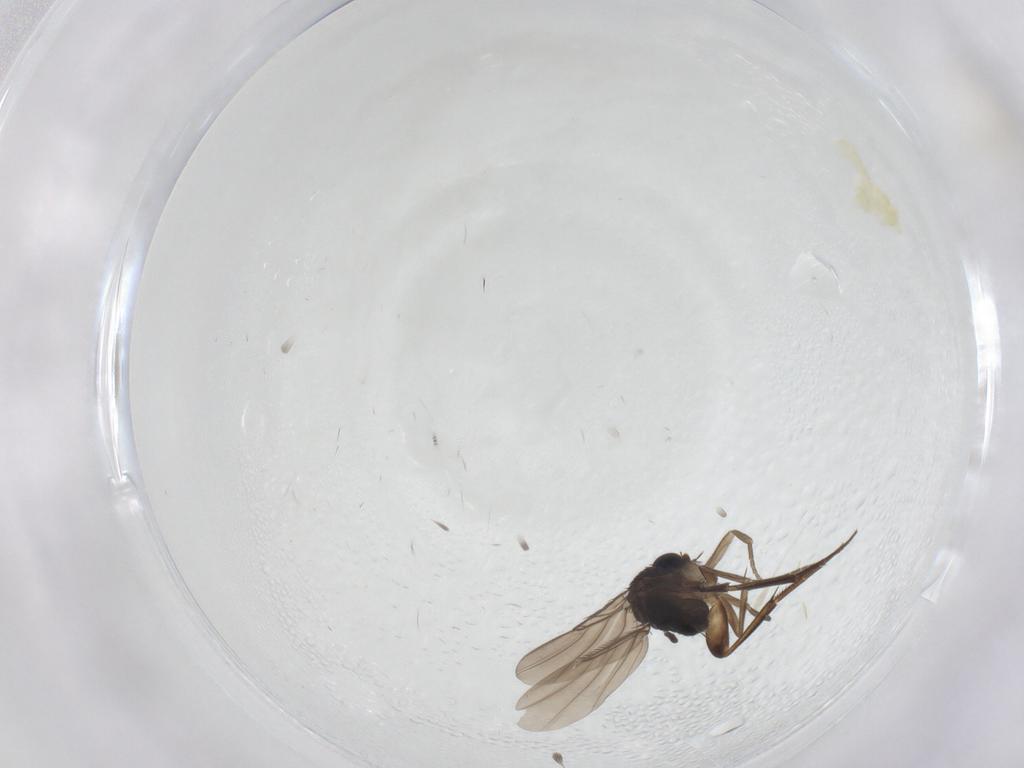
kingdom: Animalia
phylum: Arthropoda
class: Insecta
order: Diptera
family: Phoridae
